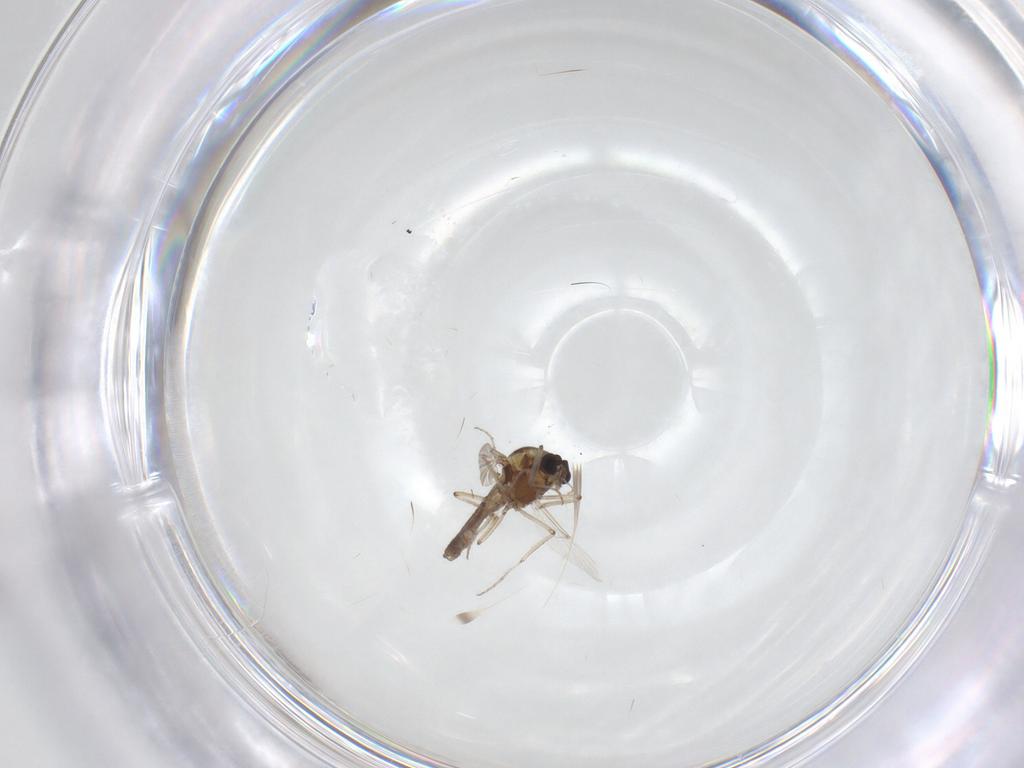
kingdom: Animalia
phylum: Arthropoda
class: Insecta
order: Diptera
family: Ceratopogonidae
